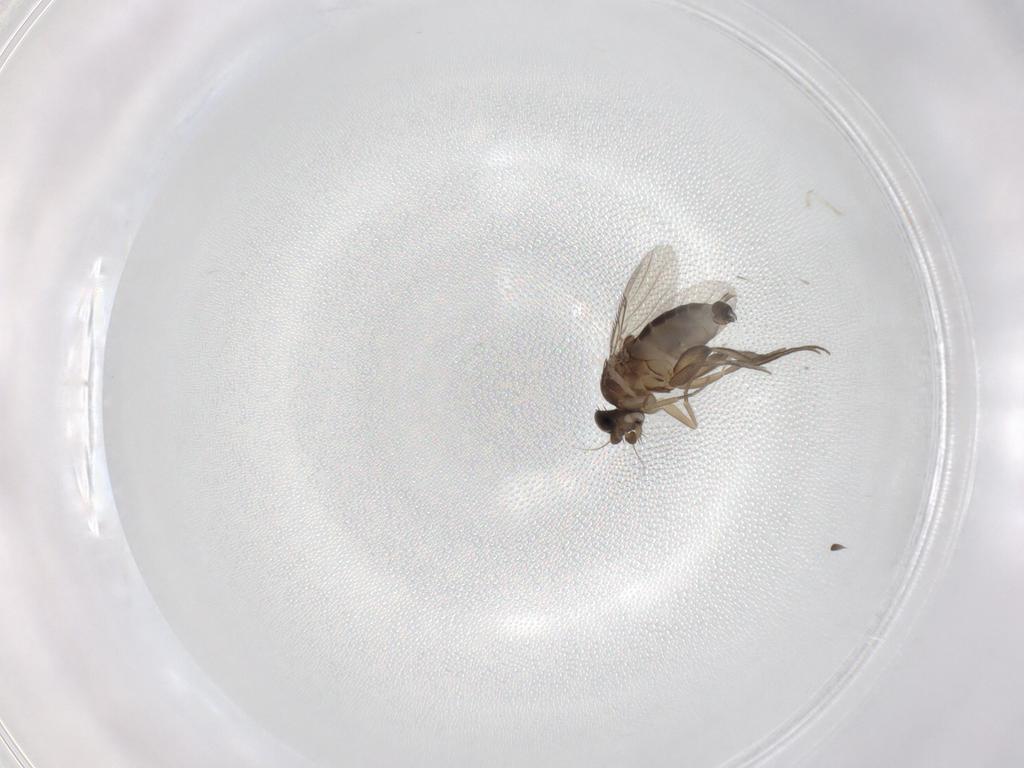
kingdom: Animalia
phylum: Arthropoda
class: Insecta
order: Diptera
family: Phoridae
